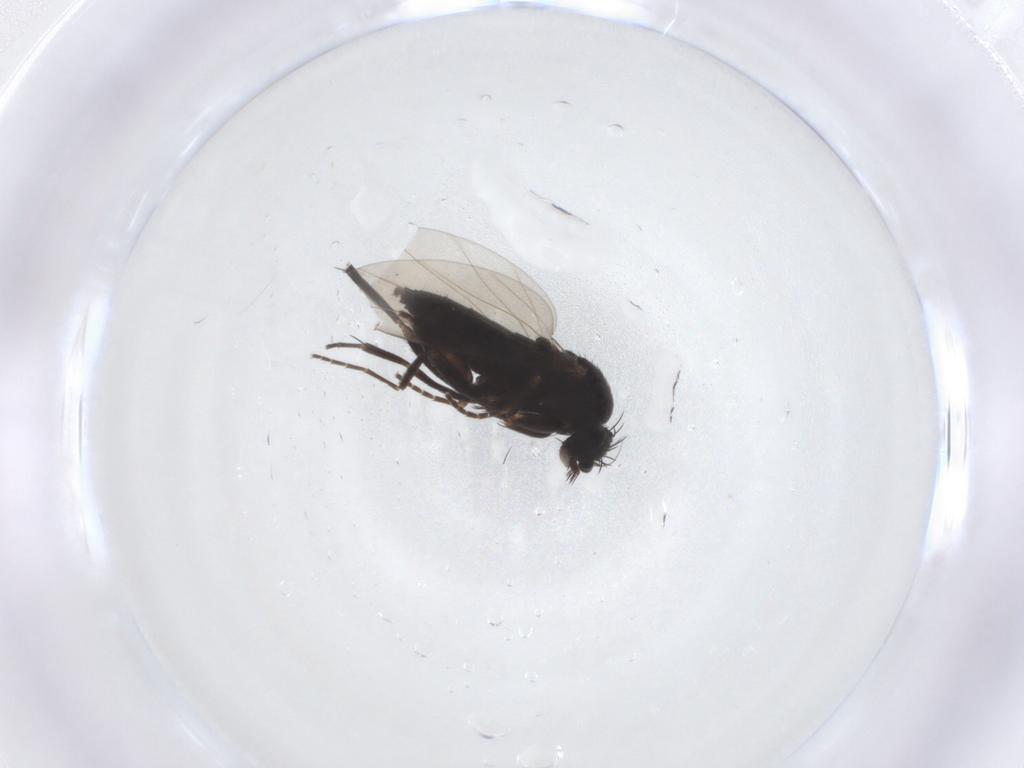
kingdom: Animalia
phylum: Arthropoda
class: Insecta
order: Diptera
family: Phoridae
